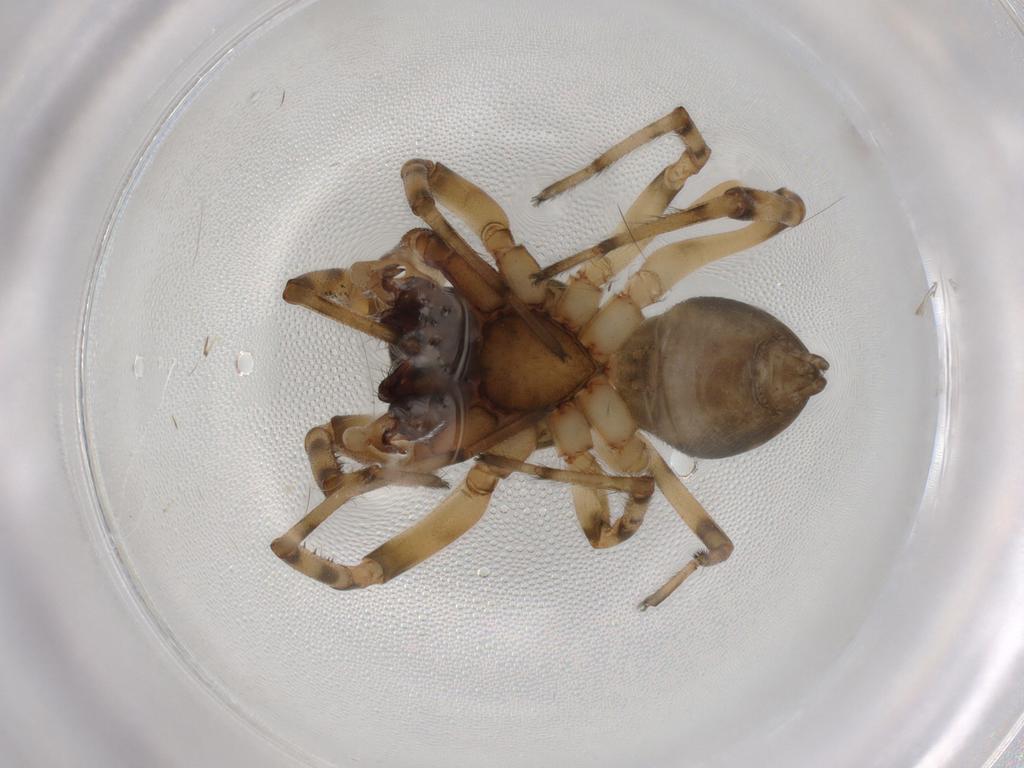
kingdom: Animalia
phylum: Arthropoda
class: Arachnida
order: Araneae
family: Trachelidae
